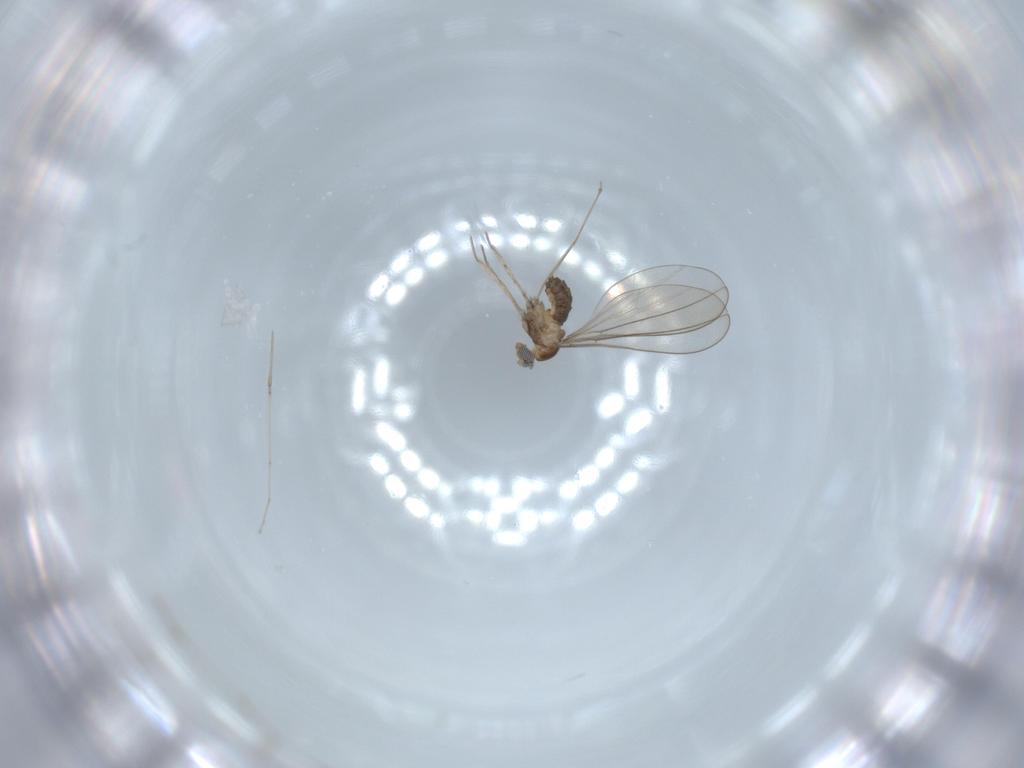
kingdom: Animalia
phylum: Arthropoda
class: Insecta
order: Diptera
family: Cecidomyiidae
